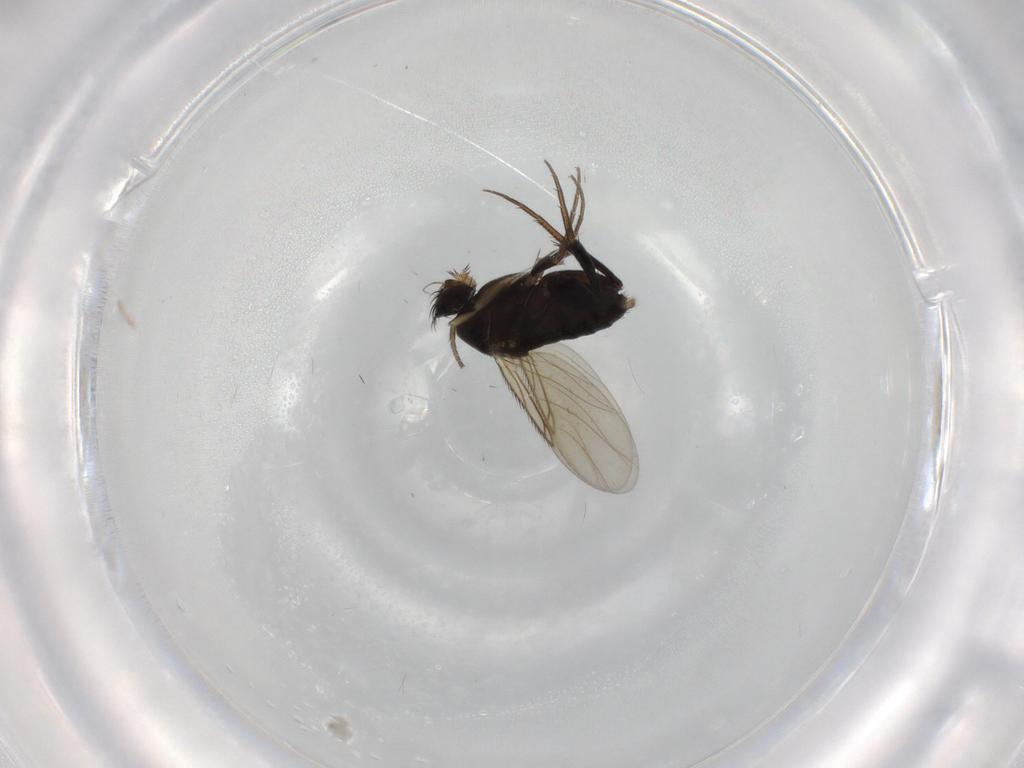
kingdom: Animalia
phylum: Arthropoda
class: Insecta
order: Diptera
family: Phoridae
